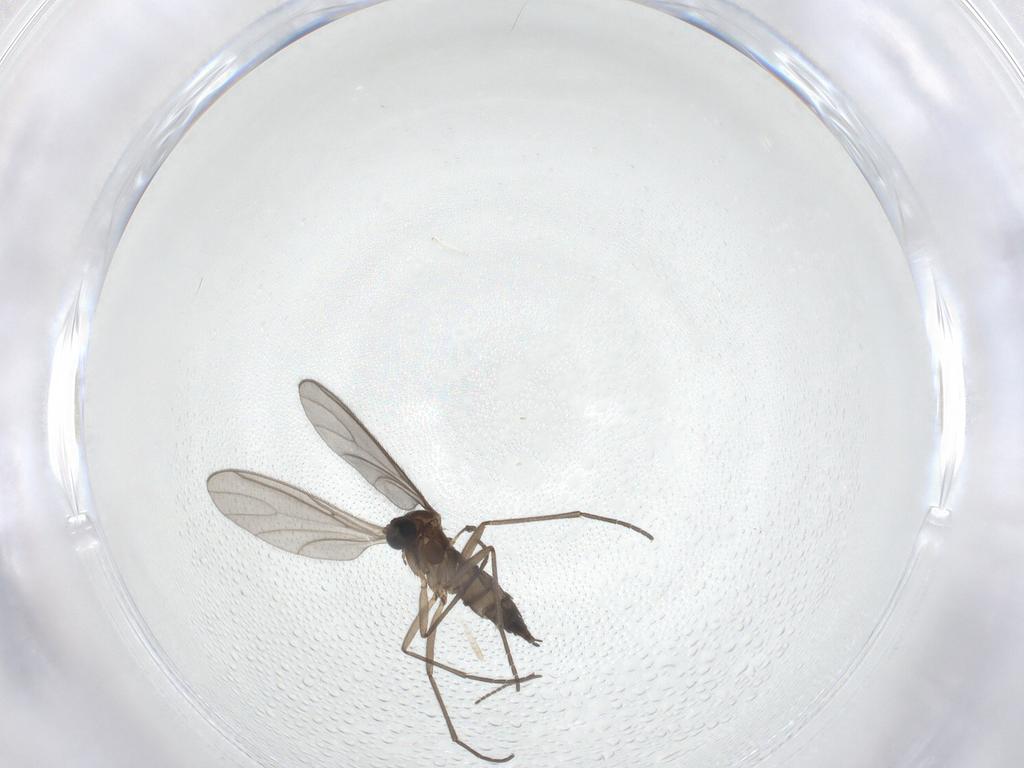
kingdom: Animalia
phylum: Arthropoda
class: Insecta
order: Diptera
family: Sciaridae
